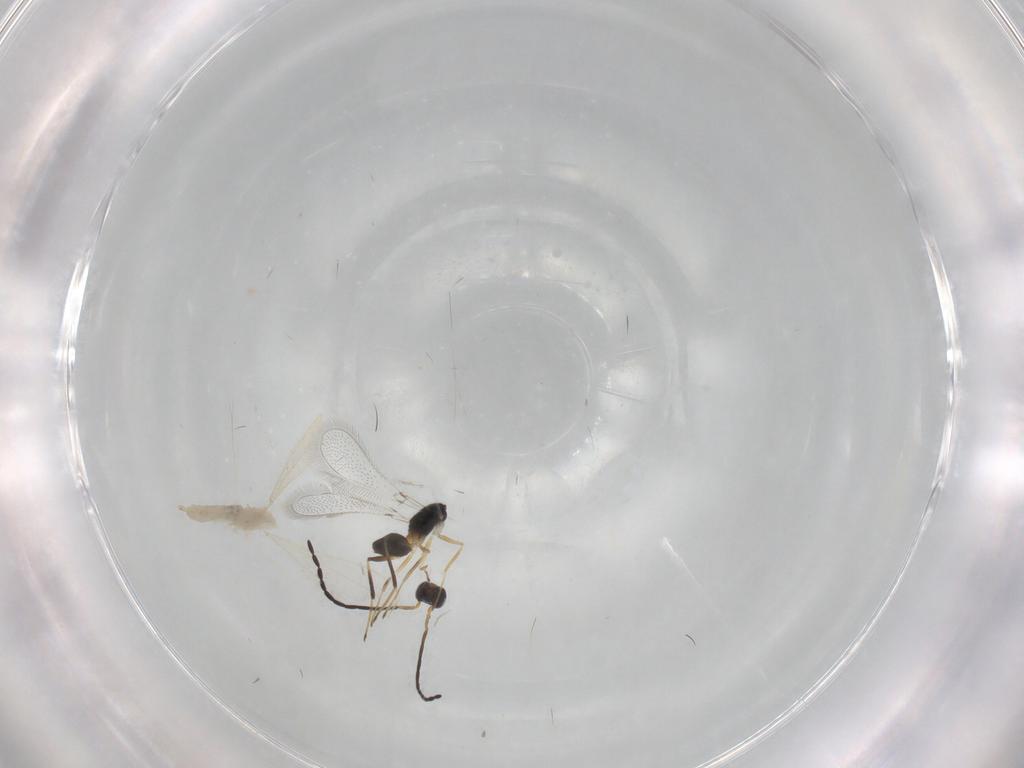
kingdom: Animalia
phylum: Arthropoda
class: Insecta
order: Diptera
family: Cecidomyiidae
